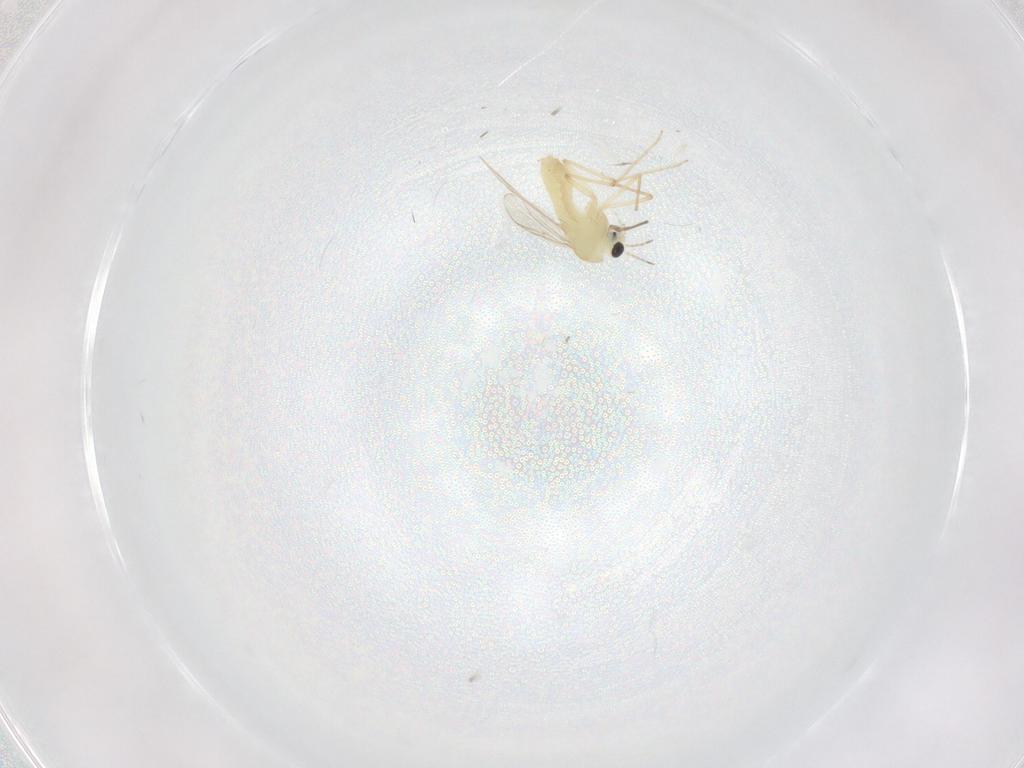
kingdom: Animalia
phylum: Arthropoda
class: Insecta
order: Diptera
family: Chironomidae
